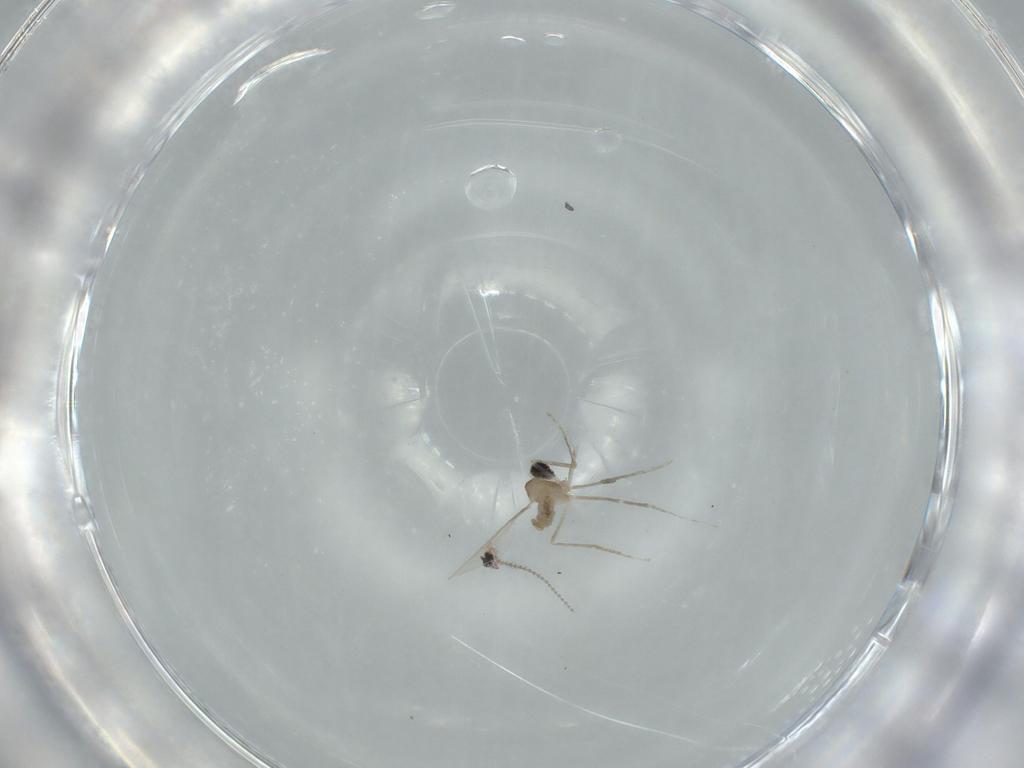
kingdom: Animalia
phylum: Arthropoda
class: Insecta
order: Diptera
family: Cecidomyiidae
